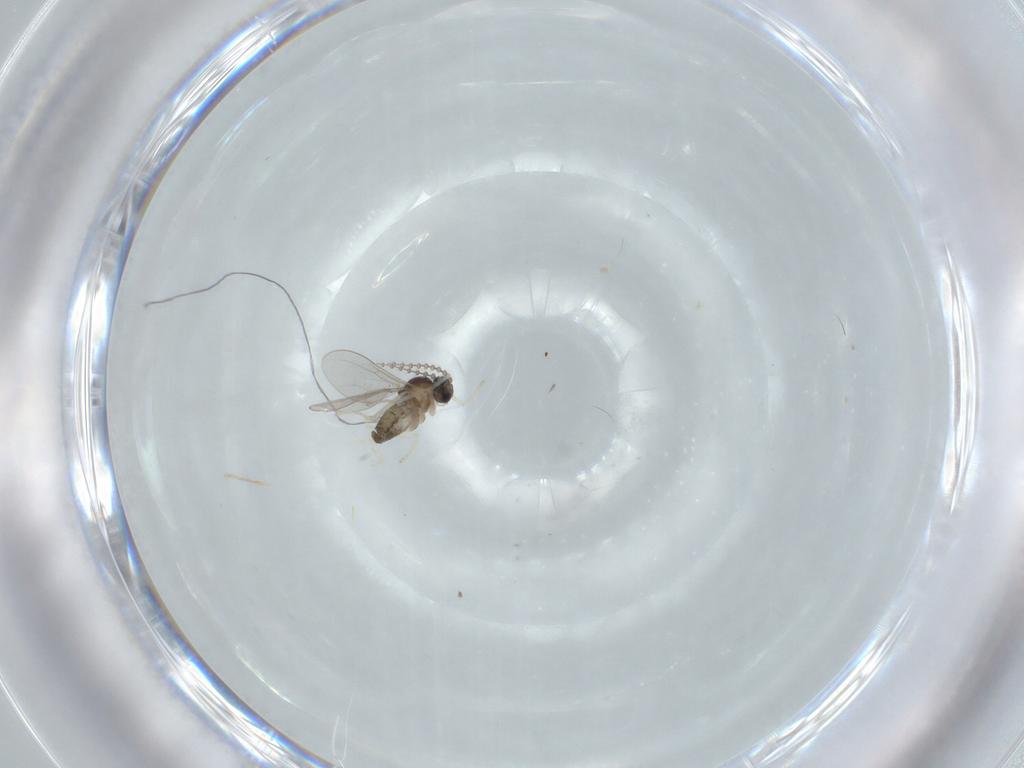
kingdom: Animalia
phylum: Arthropoda
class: Insecta
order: Diptera
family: Cecidomyiidae
